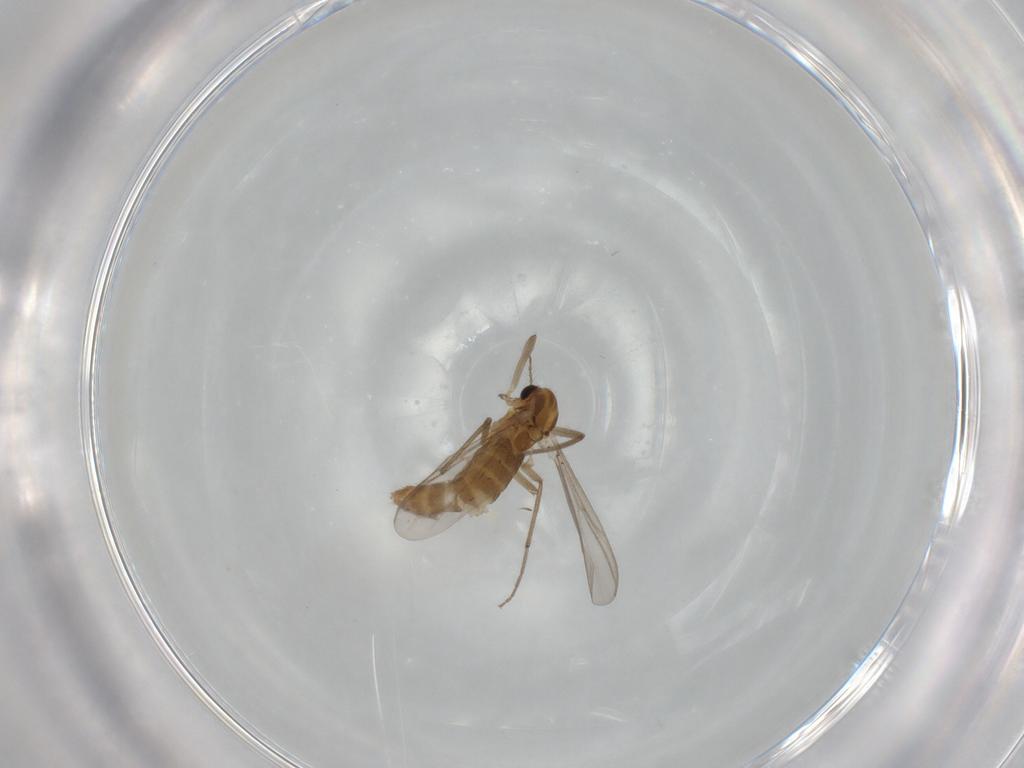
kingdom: Animalia
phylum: Arthropoda
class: Insecta
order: Diptera
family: Chironomidae
